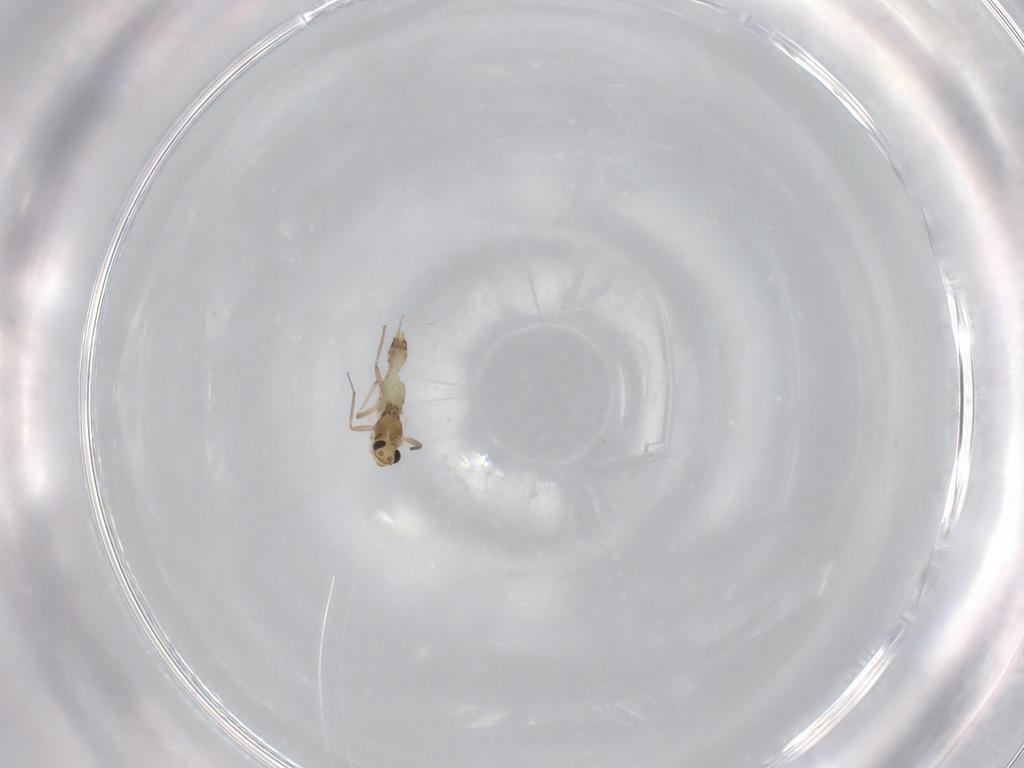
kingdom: Animalia
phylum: Arthropoda
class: Insecta
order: Diptera
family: Chironomidae
